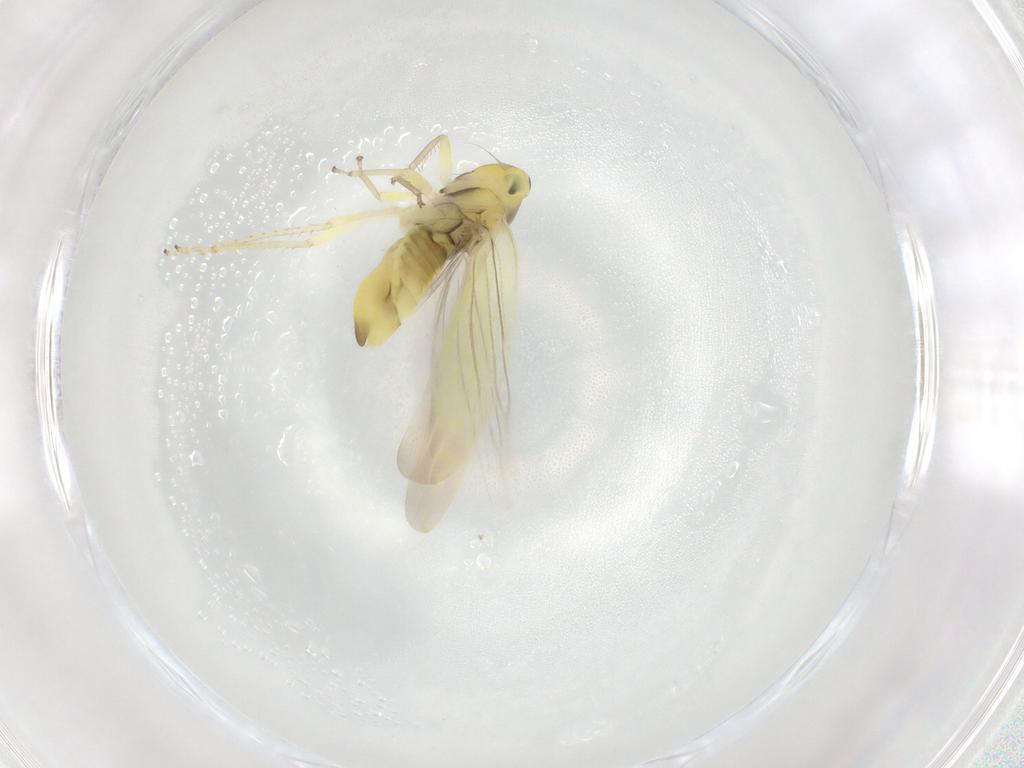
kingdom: Animalia
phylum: Arthropoda
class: Insecta
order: Hemiptera
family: Cicadellidae
